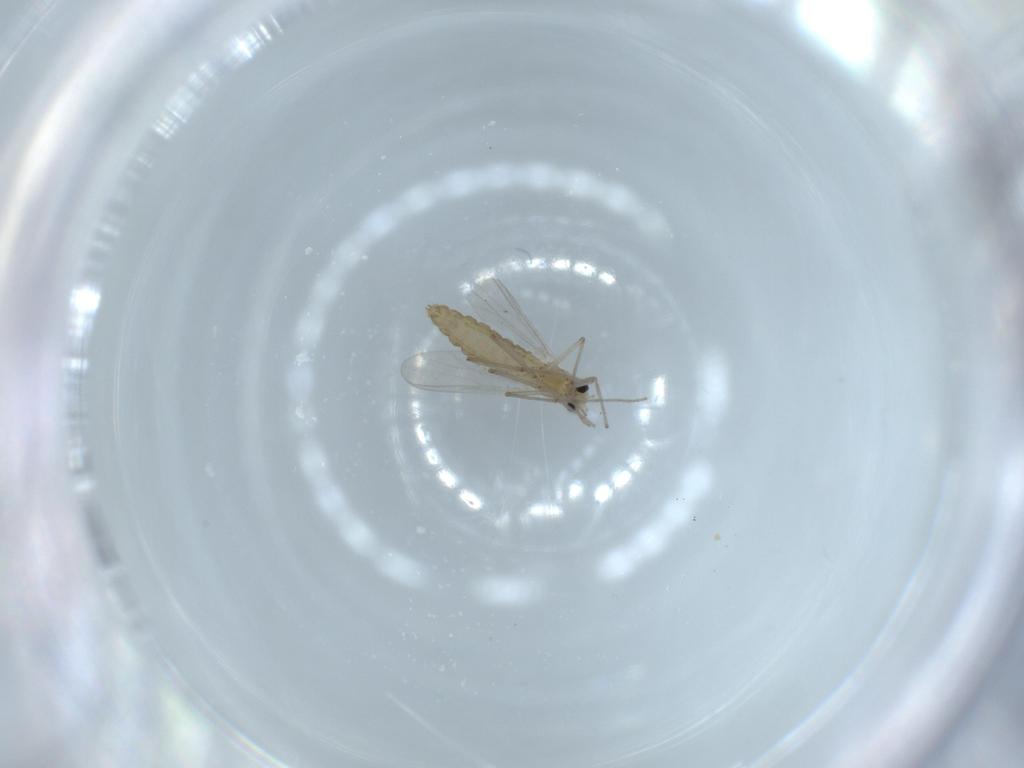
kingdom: Animalia
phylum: Arthropoda
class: Insecta
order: Diptera
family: Chironomidae
